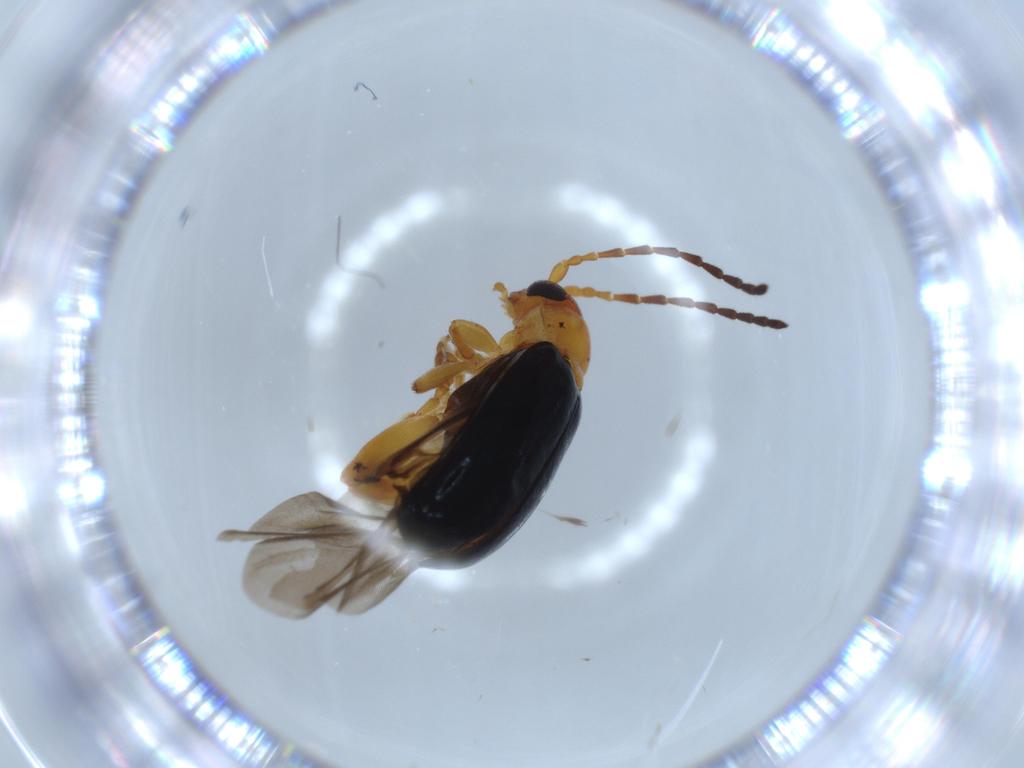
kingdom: Animalia
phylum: Arthropoda
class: Insecta
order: Coleoptera
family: Chrysomelidae
